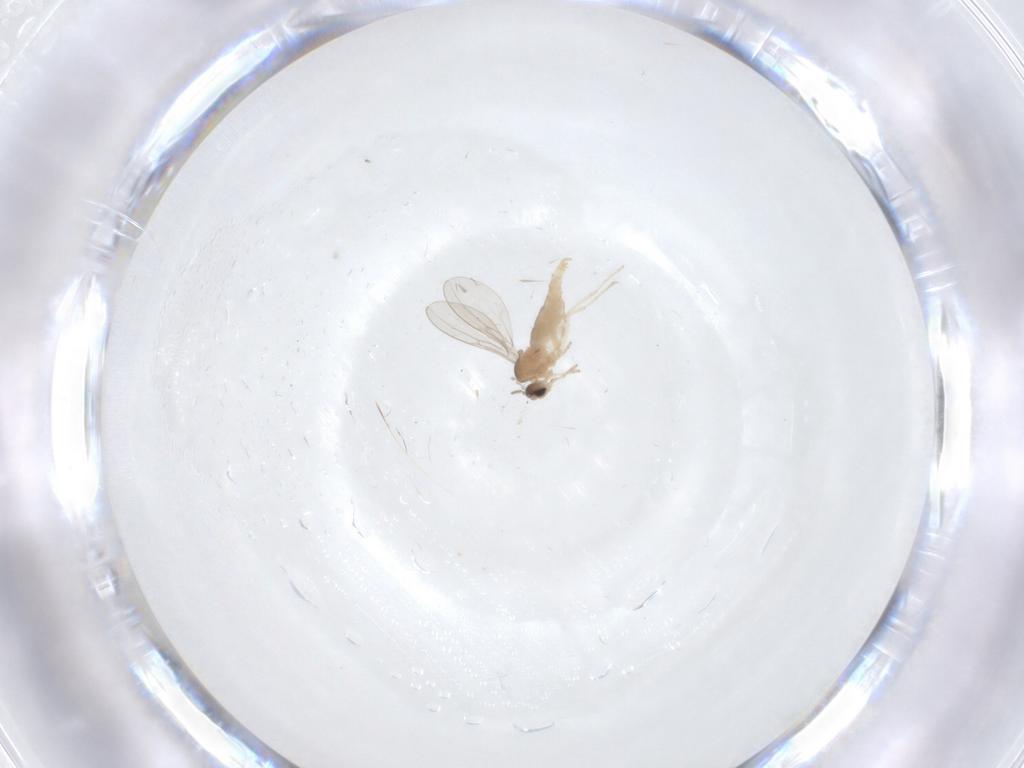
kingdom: Animalia
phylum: Arthropoda
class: Insecta
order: Diptera
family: Cecidomyiidae
